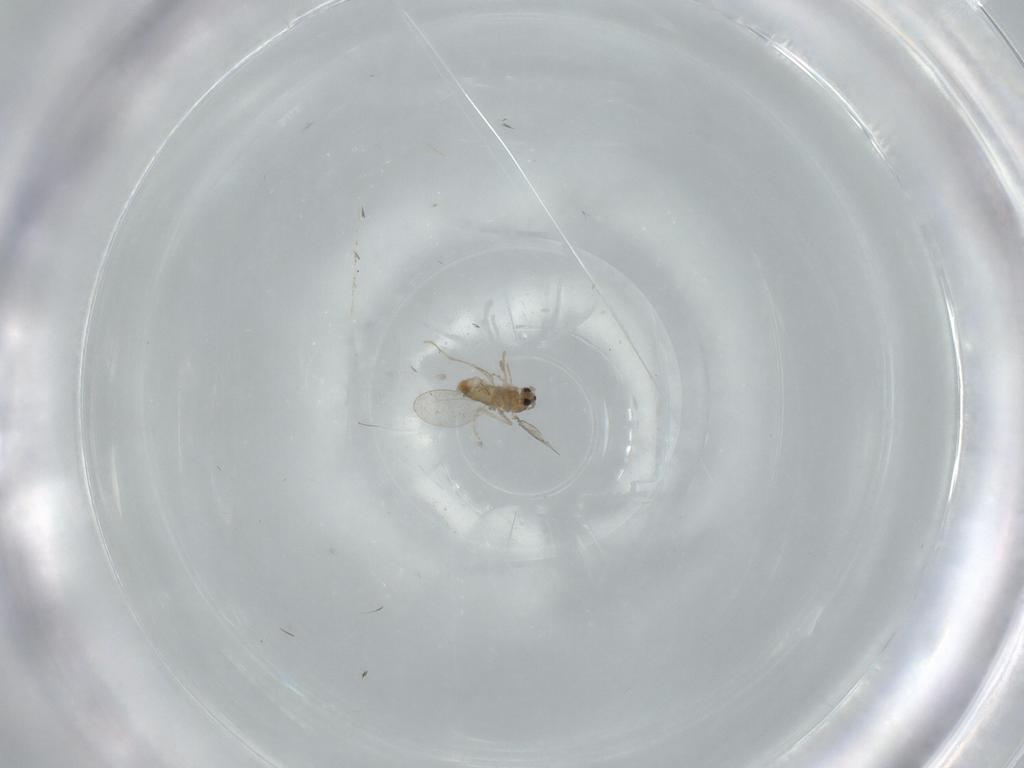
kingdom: Animalia
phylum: Arthropoda
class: Insecta
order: Diptera
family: Cecidomyiidae
